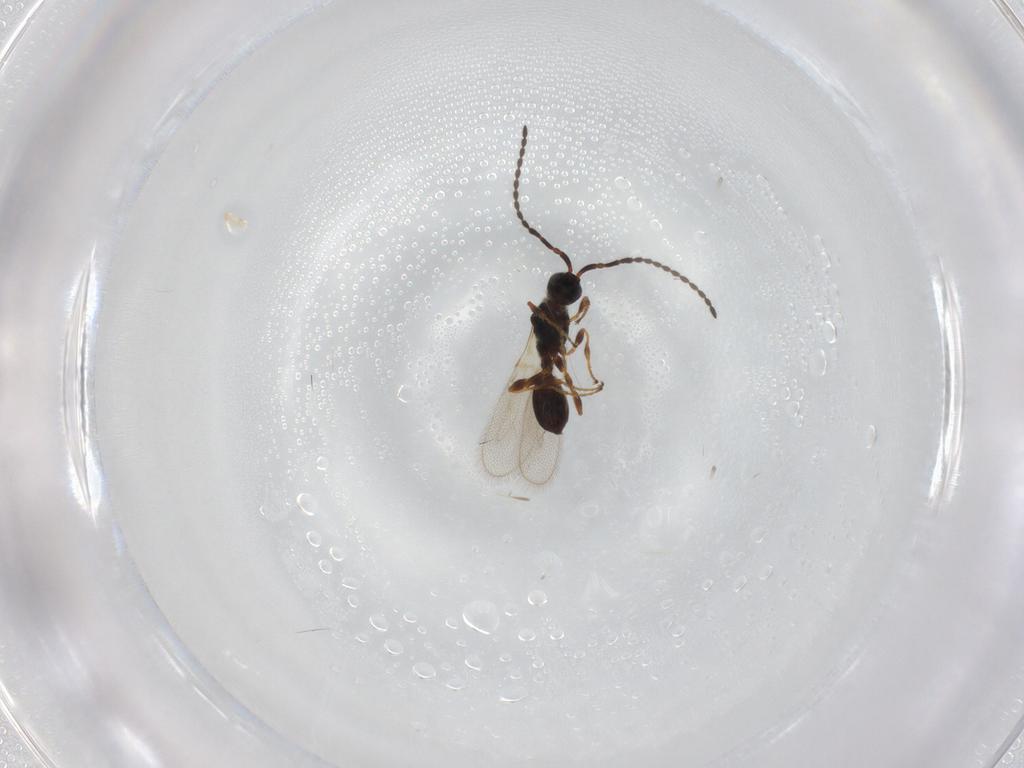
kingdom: Animalia
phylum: Arthropoda
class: Insecta
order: Hymenoptera
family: Diapriidae
